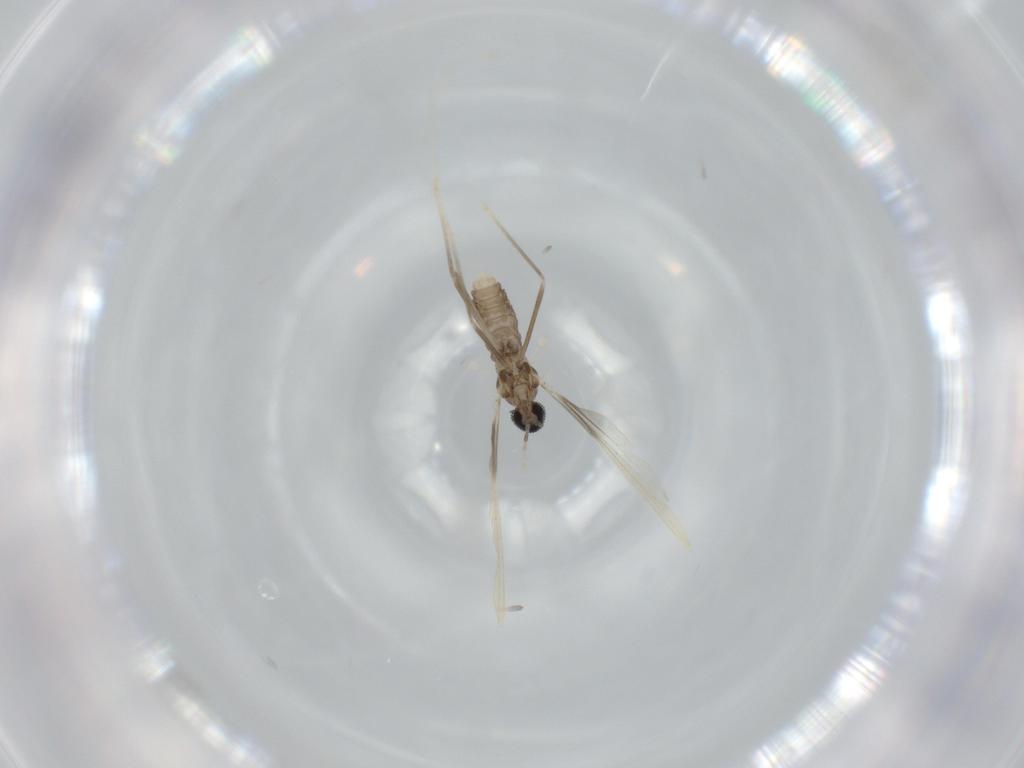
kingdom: Animalia
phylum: Arthropoda
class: Insecta
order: Diptera
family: Cecidomyiidae
